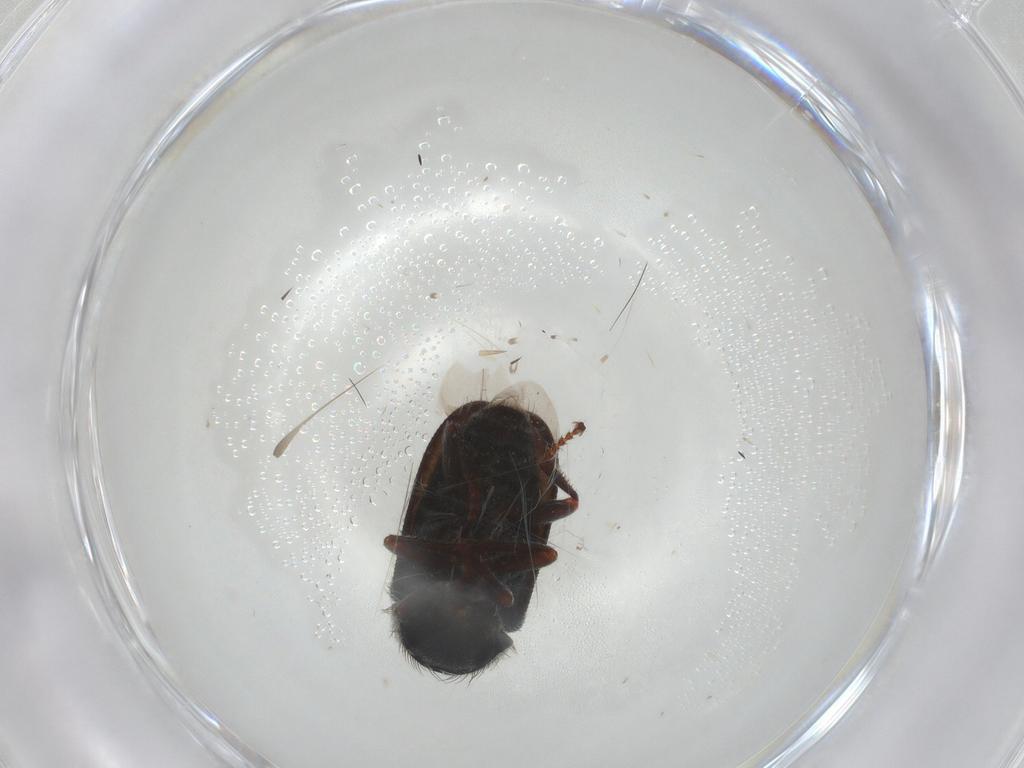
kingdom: Animalia
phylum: Arthropoda
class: Insecta
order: Coleoptera
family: Melyridae
